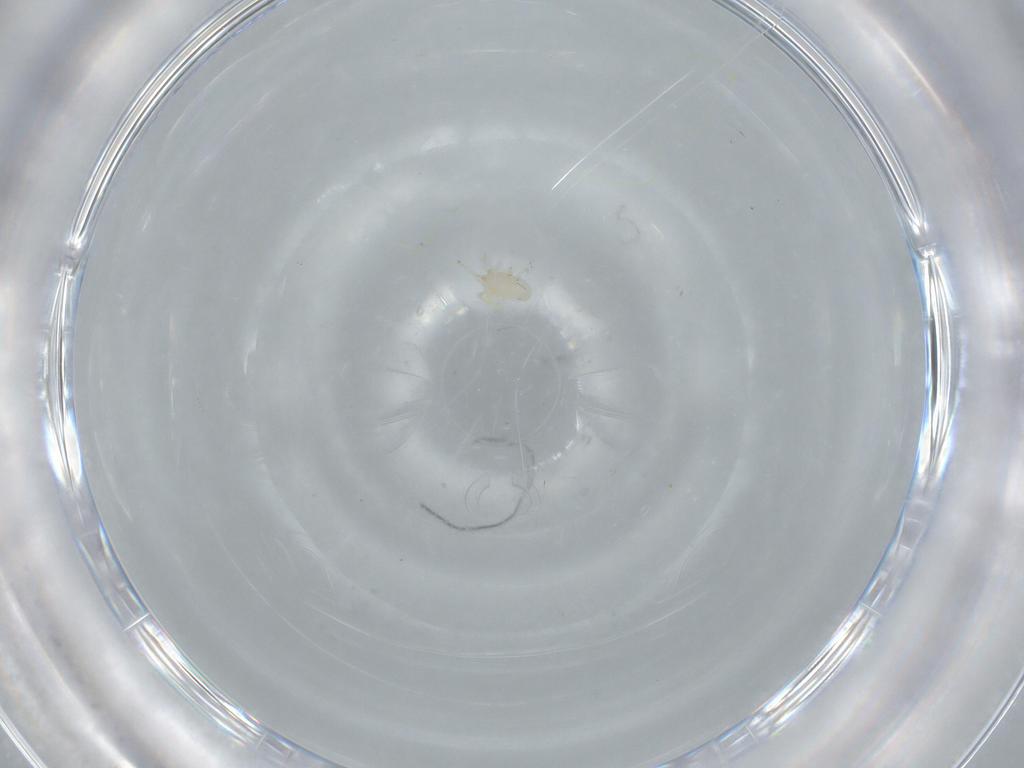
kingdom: Animalia
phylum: Arthropoda
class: Arachnida
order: Mesostigmata
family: Blattisociidae
